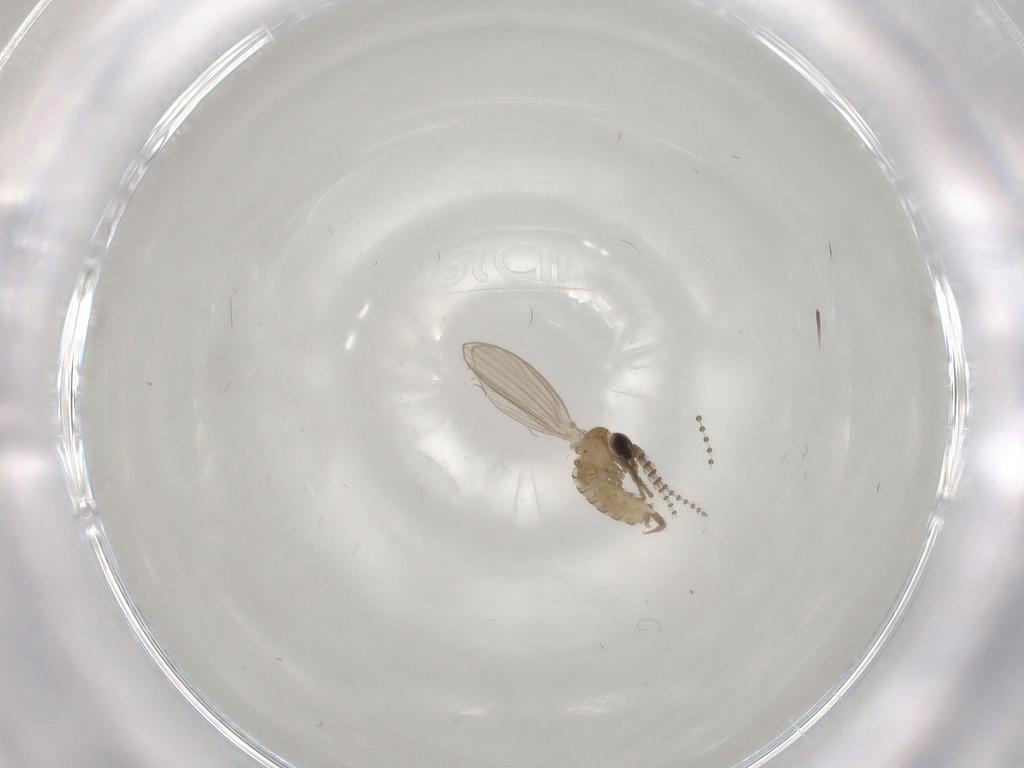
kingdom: Animalia
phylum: Arthropoda
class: Insecta
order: Diptera
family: Psychodidae
